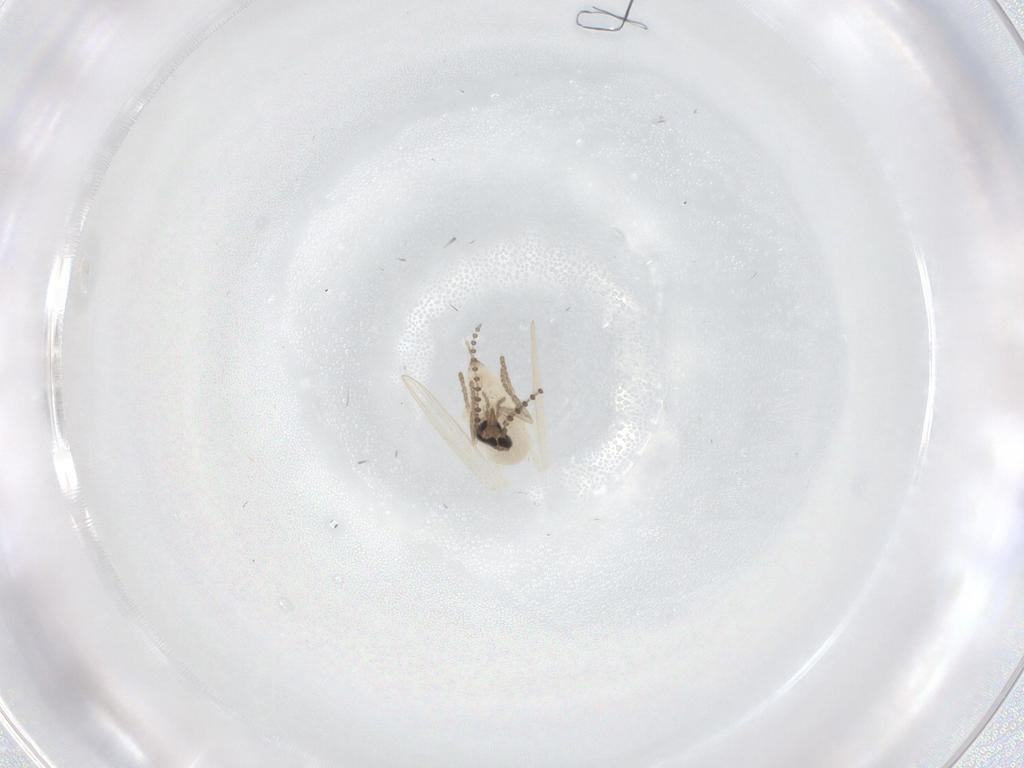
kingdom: Animalia
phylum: Arthropoda
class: Insecta
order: Diptera
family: Psychodidae
